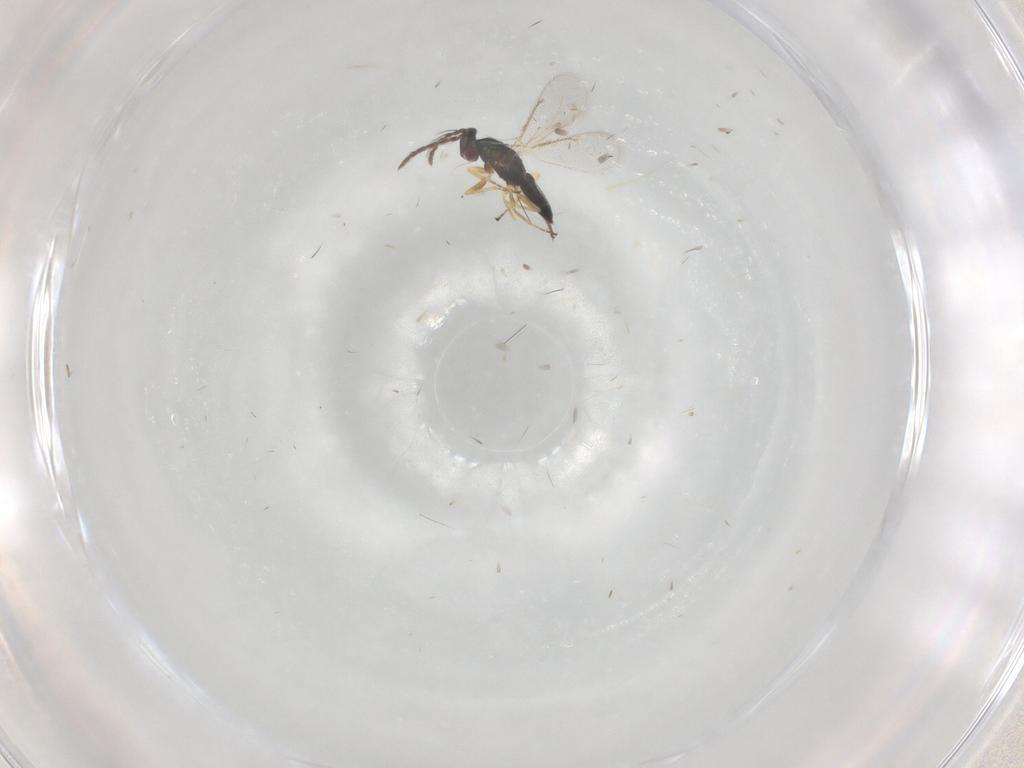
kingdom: Animalia
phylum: Arthropoda
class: Insecta
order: Hymenoptera
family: Eulophidae
